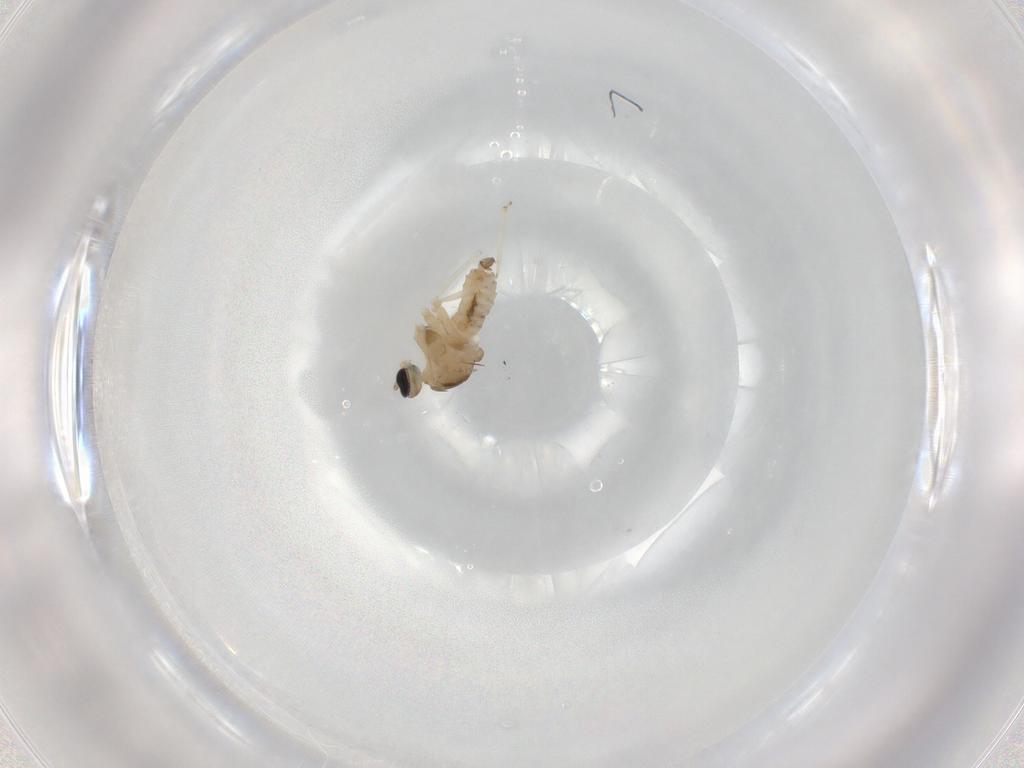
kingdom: Animalia
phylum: Arthropoda
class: Insecta
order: Diptera
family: Cecidomyiidae
